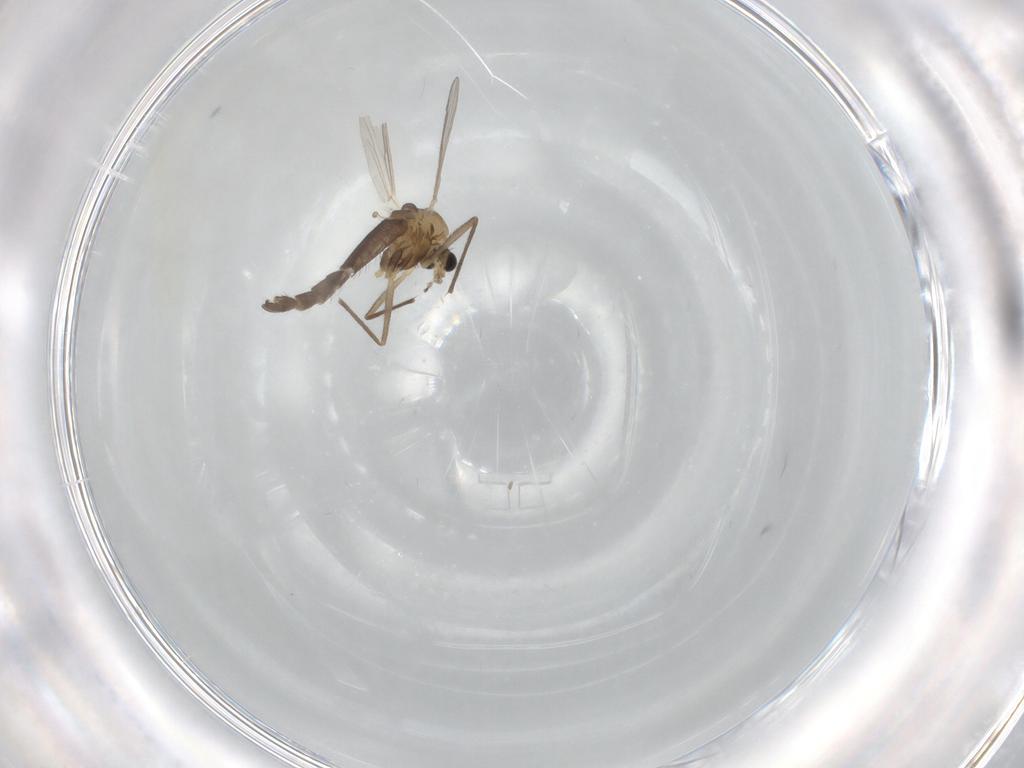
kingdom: Animalia
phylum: Arthropoda
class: Insecta
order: Diptera
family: Chironomidae
